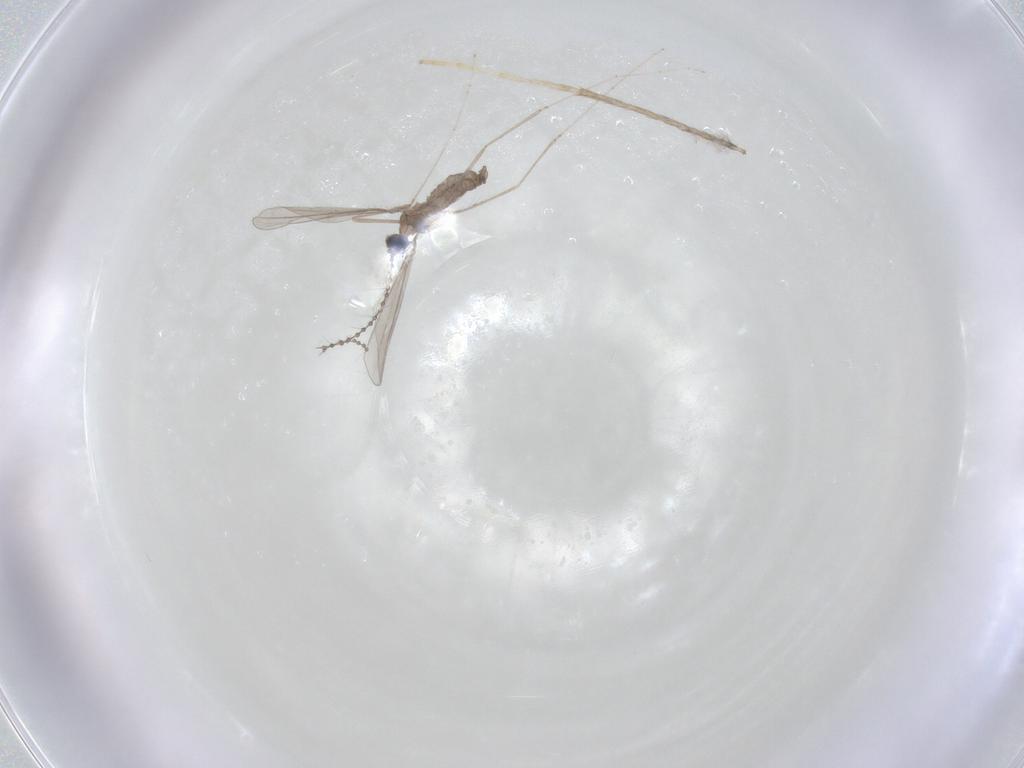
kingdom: Animalia
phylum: Arthropoda
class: Insecta
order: Diptera
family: Cecidomyiidae
